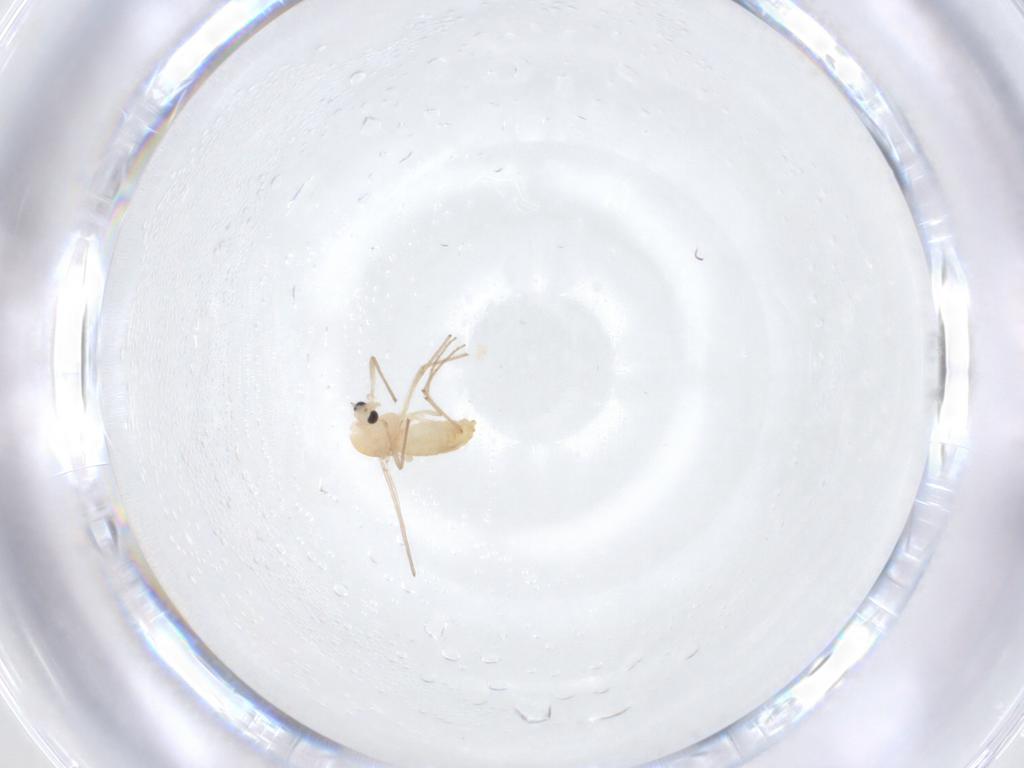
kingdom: Animalia
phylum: Arthropoda
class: Insecta
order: Diptera
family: Chironomidae
